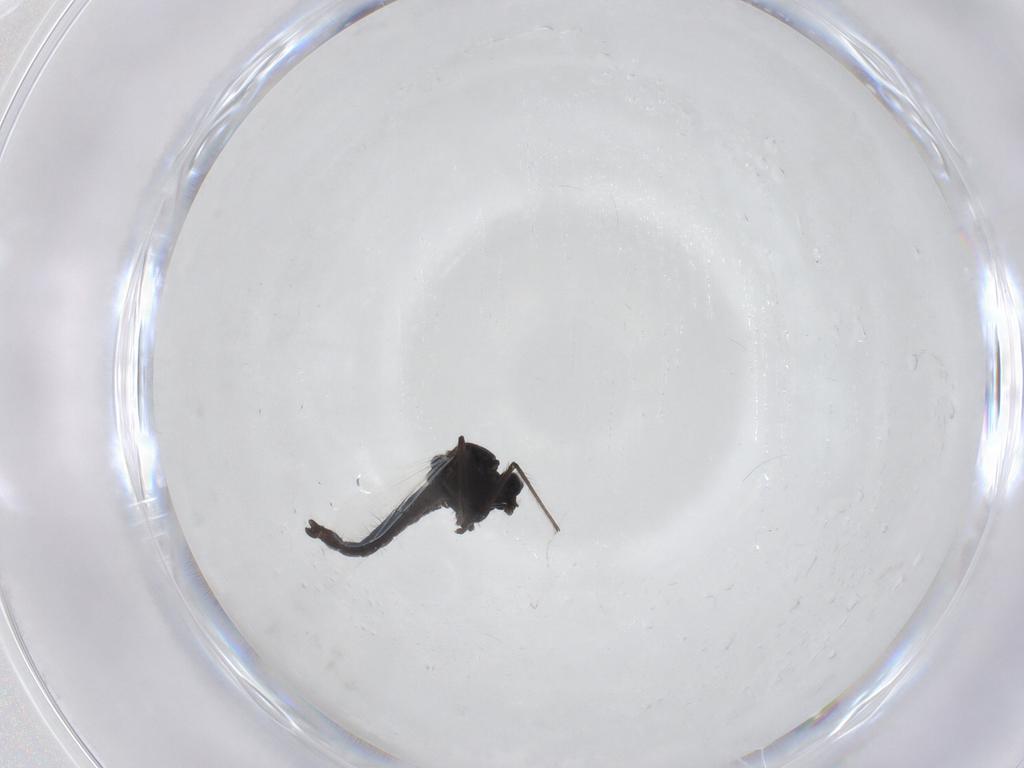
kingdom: Animalia
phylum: Arthropoda
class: Insecta
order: Diptera
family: Chironomidae
